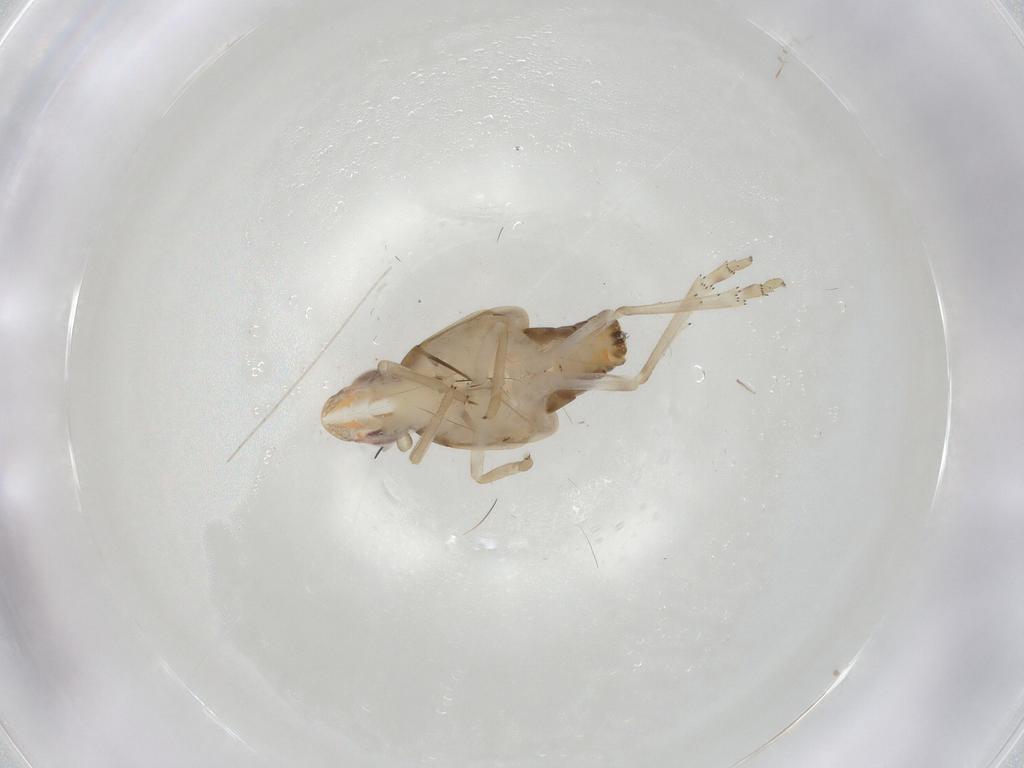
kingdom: Animalia
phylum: Arthropoda
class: Insecta
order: Hemiptera
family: Tropiduchidae
